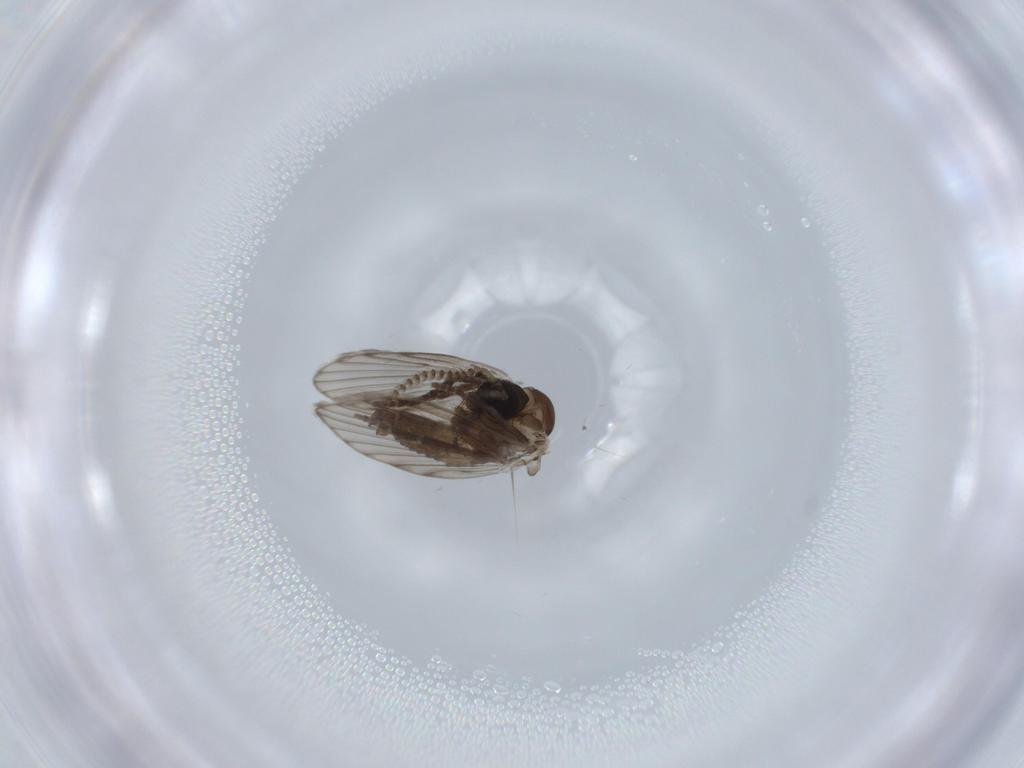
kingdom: Animalia
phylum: Arthropoda
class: Insecta
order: Diptera
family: Psychodidae
